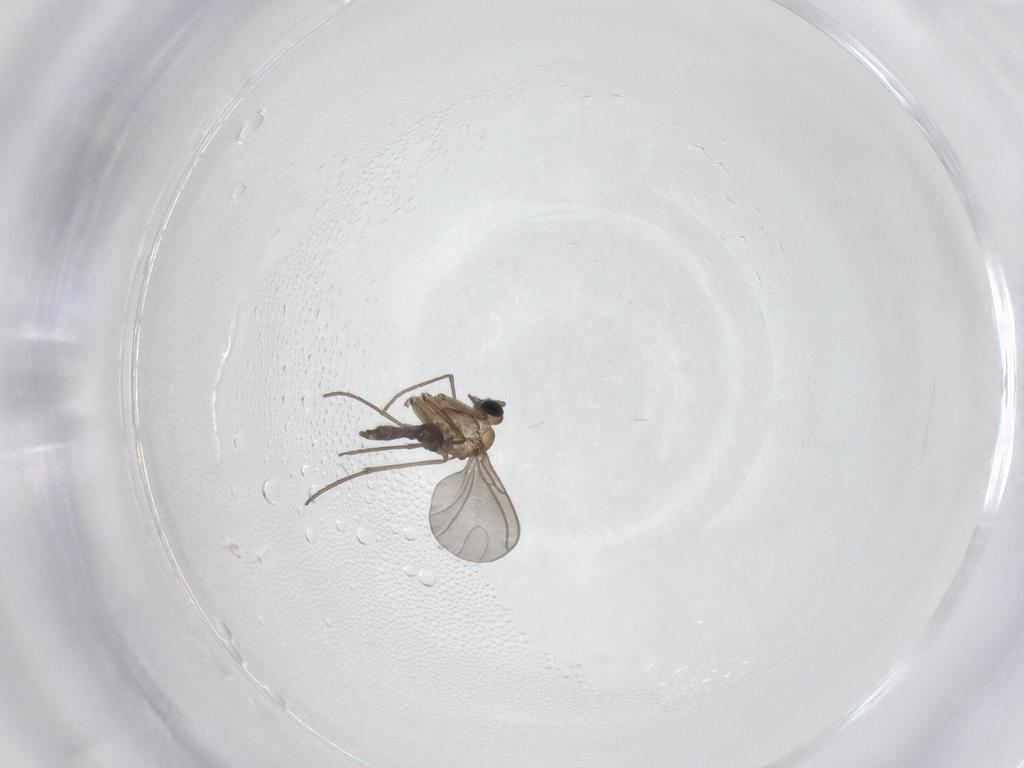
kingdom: Animalia
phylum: Arthropoda
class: Insecta
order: Diptera
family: Sciaridae
